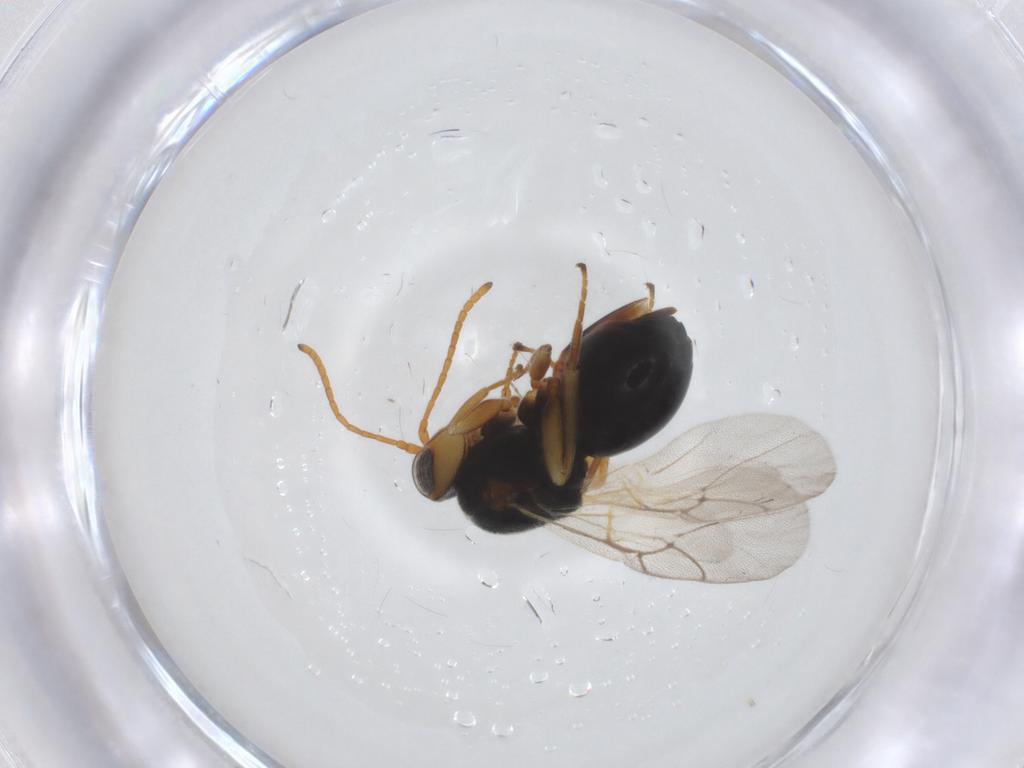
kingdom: Animalia
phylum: Arthropoda
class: Insecta
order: Hymenoptera
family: Cynipidae
